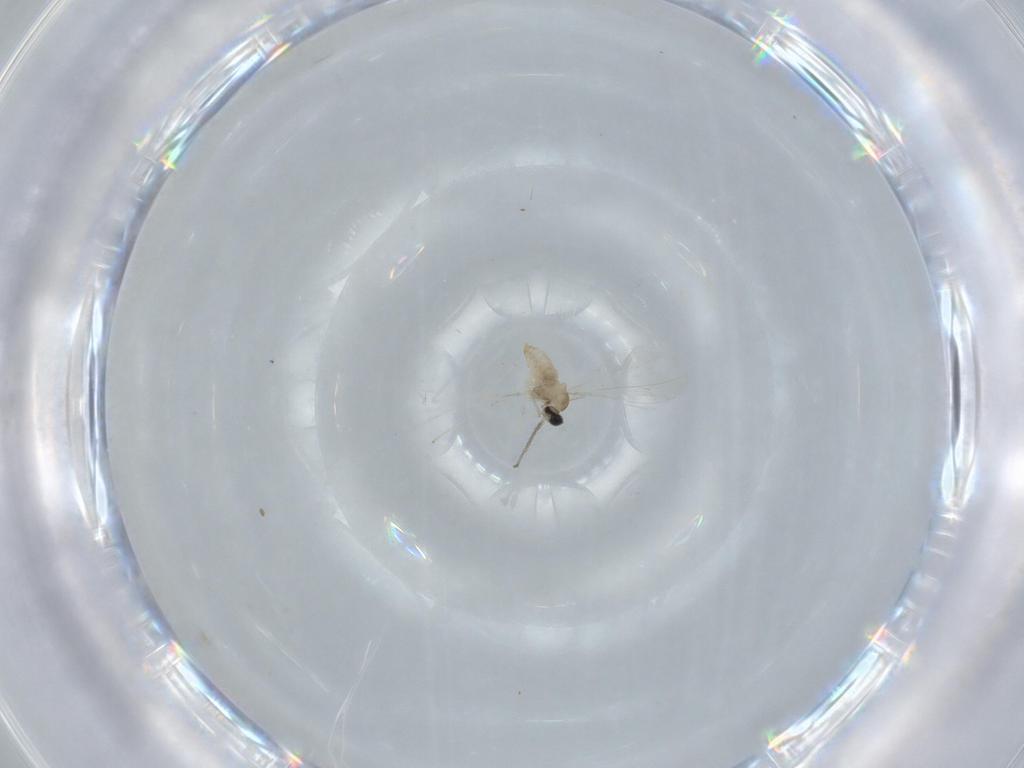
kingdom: Animalia
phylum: Arthropoda
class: Insecta
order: Diptera
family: Cecidomyiidae
